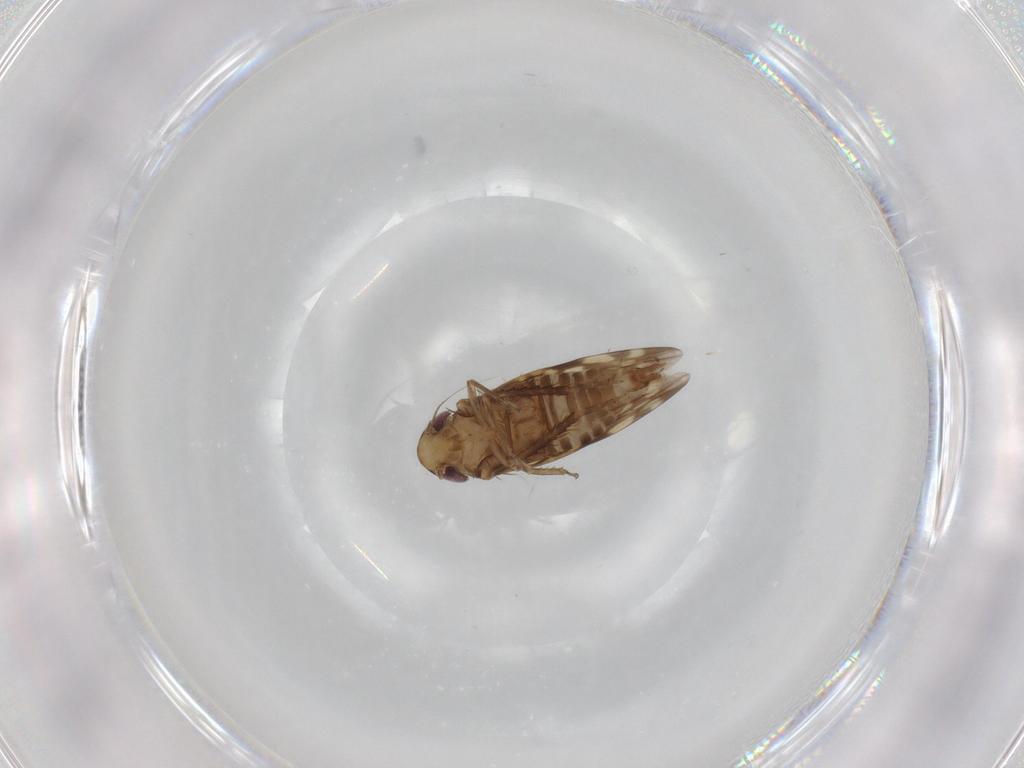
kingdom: Animalia
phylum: Arthropoda
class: Insecta
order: Hemiptera
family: Cicadellidae
